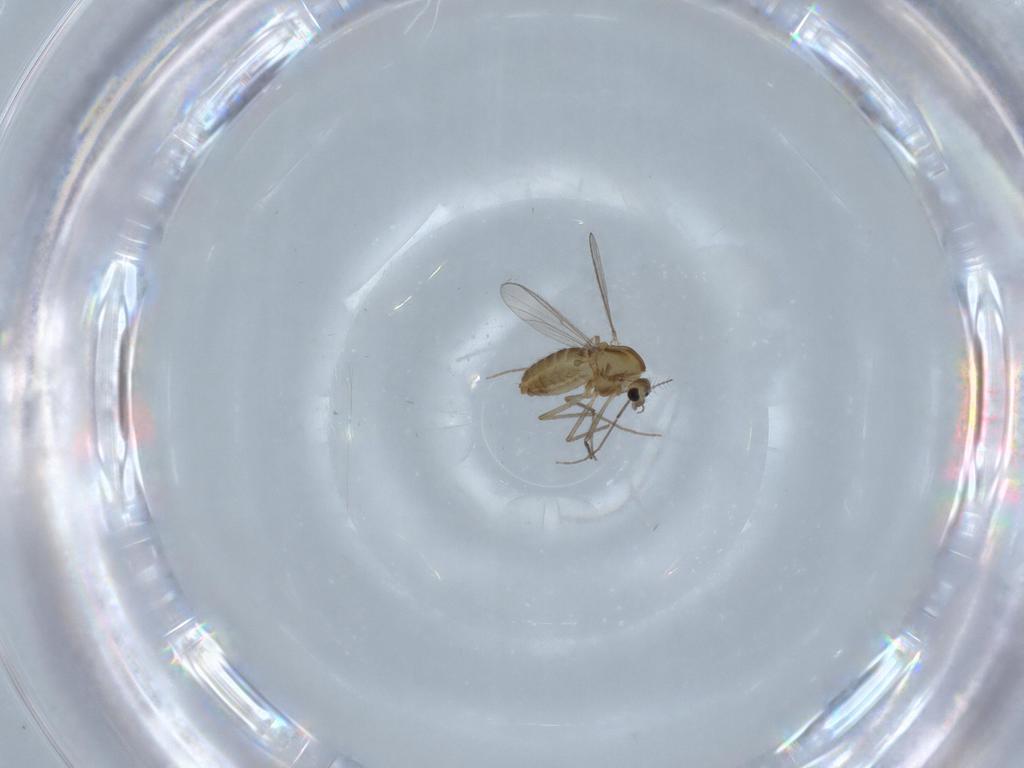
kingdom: Animalia
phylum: Arthropoda
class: Insecta
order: Diptera
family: Chironomidae
